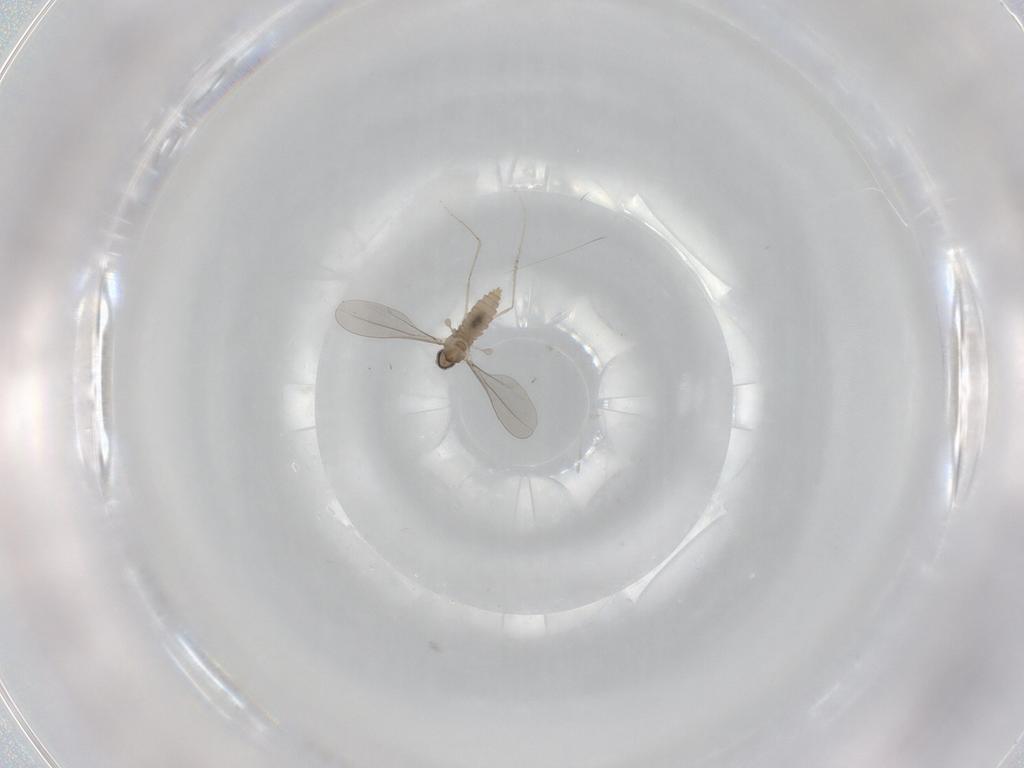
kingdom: Animalia
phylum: Arthropoda
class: Insecta
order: Diptera
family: Cecidomyiidae
